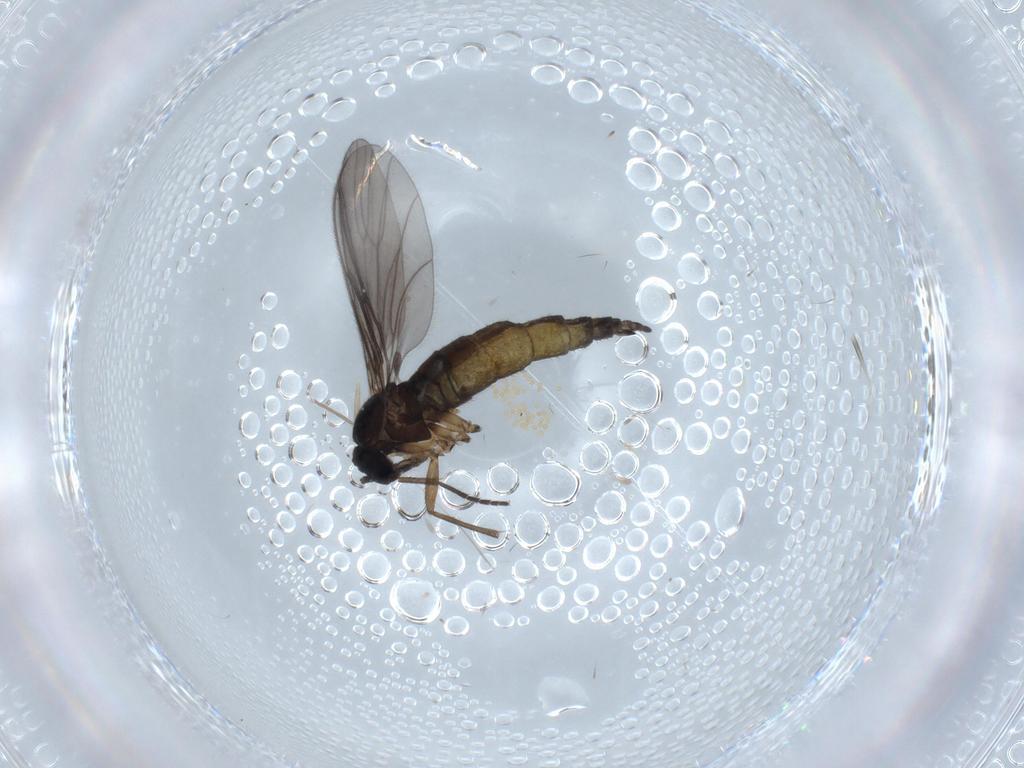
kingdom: Animalia
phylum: Arthropoda
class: Insecta
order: Diptera
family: Sciaridae
